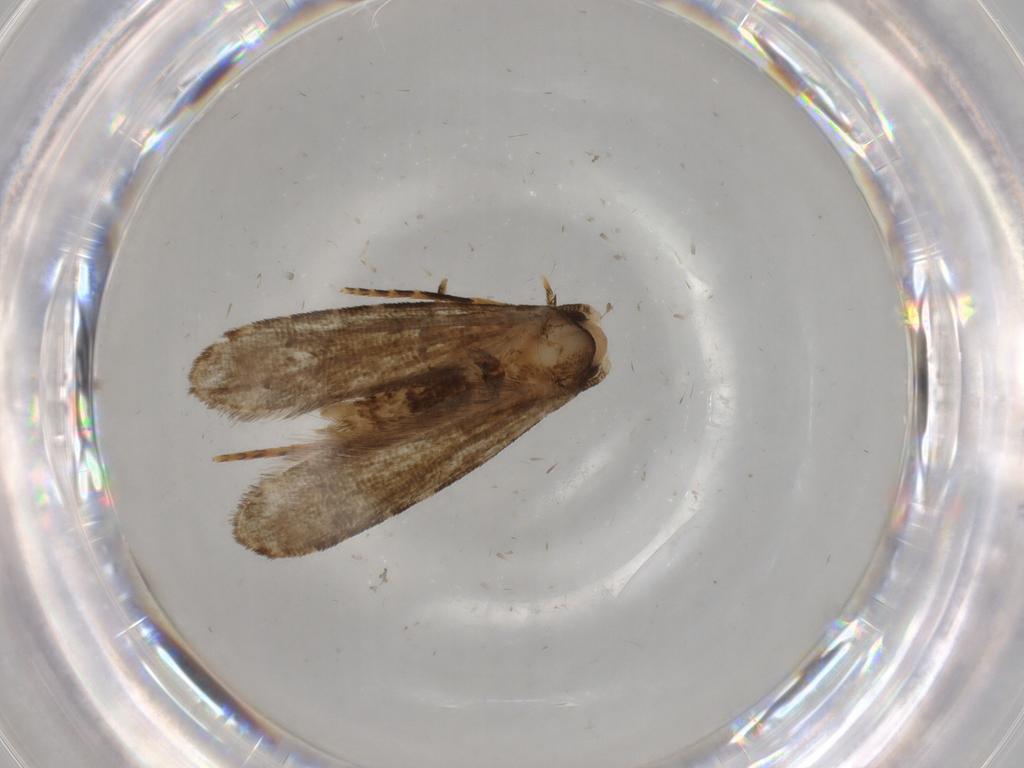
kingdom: Animalia
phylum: Arthropoda
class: Insecta
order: Lepidoptera
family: Tineidae
